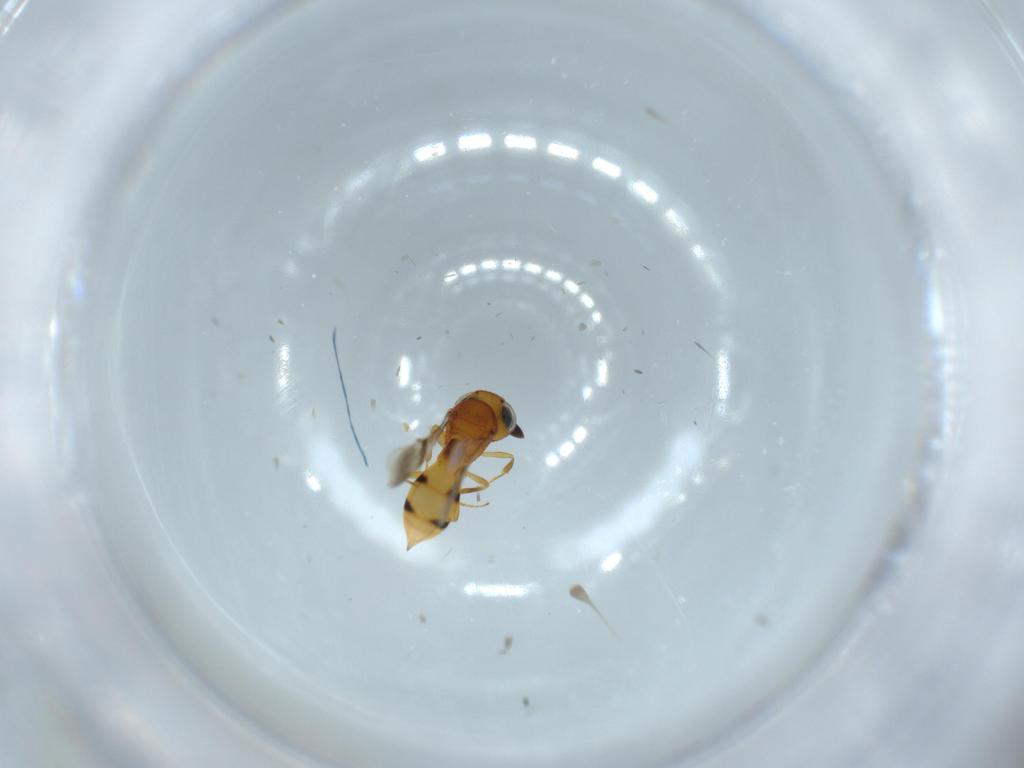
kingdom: Animalia
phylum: Arthropoda
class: Insecta
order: Hymenoptera
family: Scelionidae
